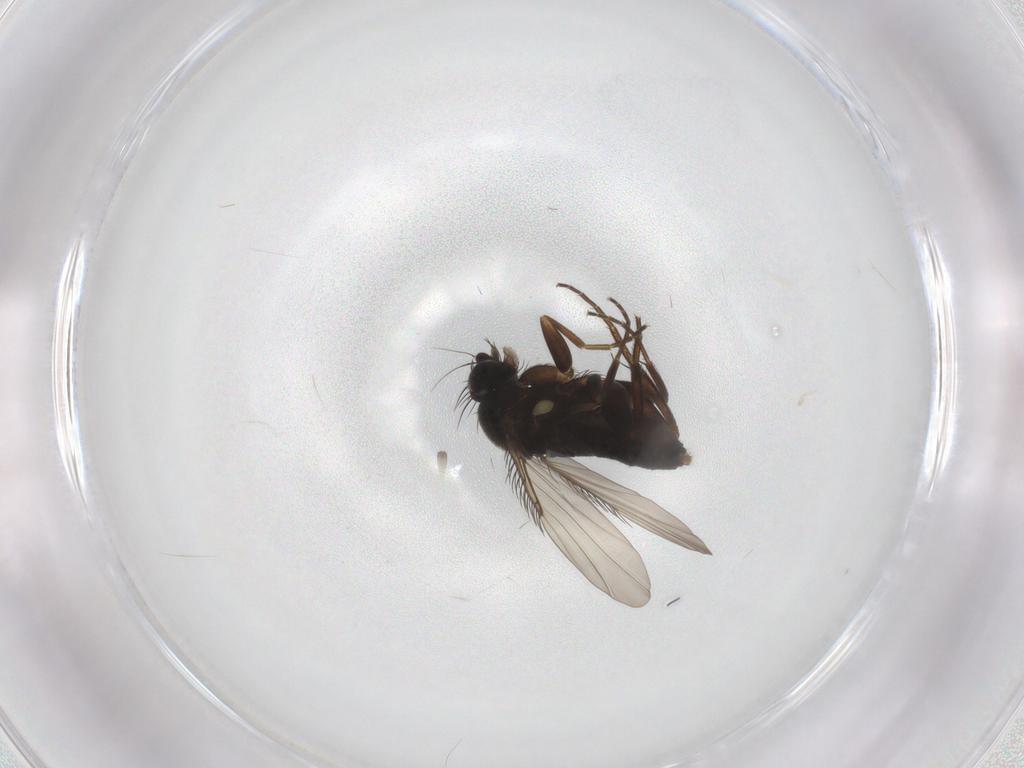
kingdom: Animalia
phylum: Arthropoda
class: Insecta
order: Diptera
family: Phoridae
